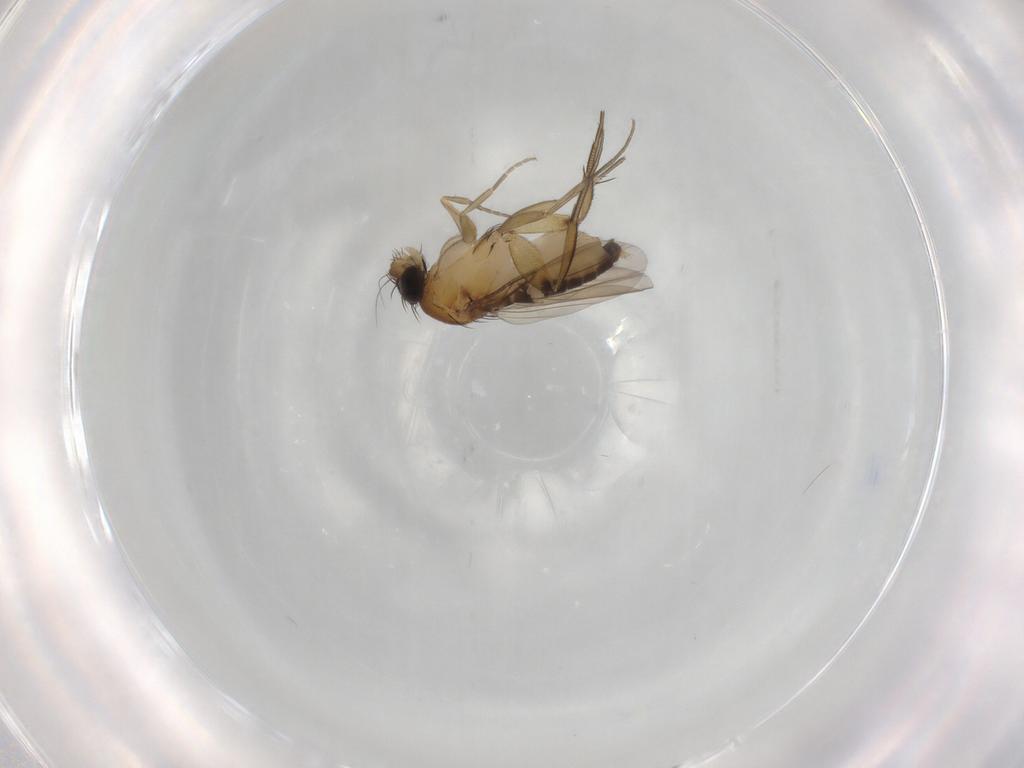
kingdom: Animalia
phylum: Arthropoda
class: Insecta
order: Diptera
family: Phoridae
